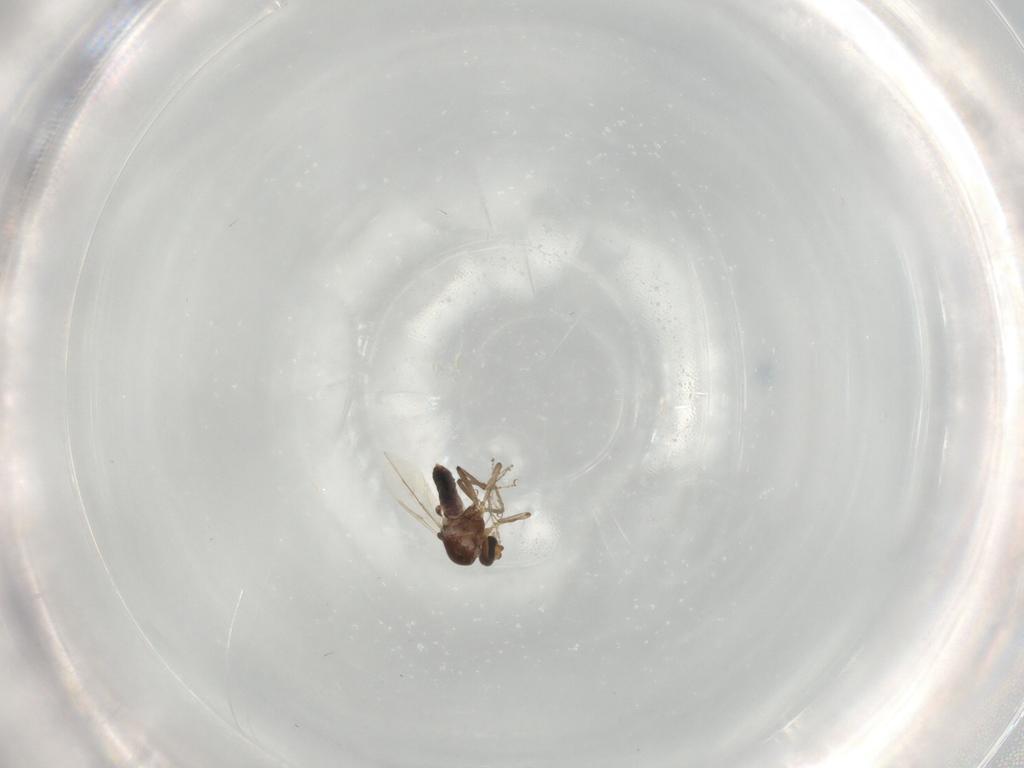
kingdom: Animalia
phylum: Arthropoda
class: Insecta
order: Diptera
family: Ceratopogonidae
